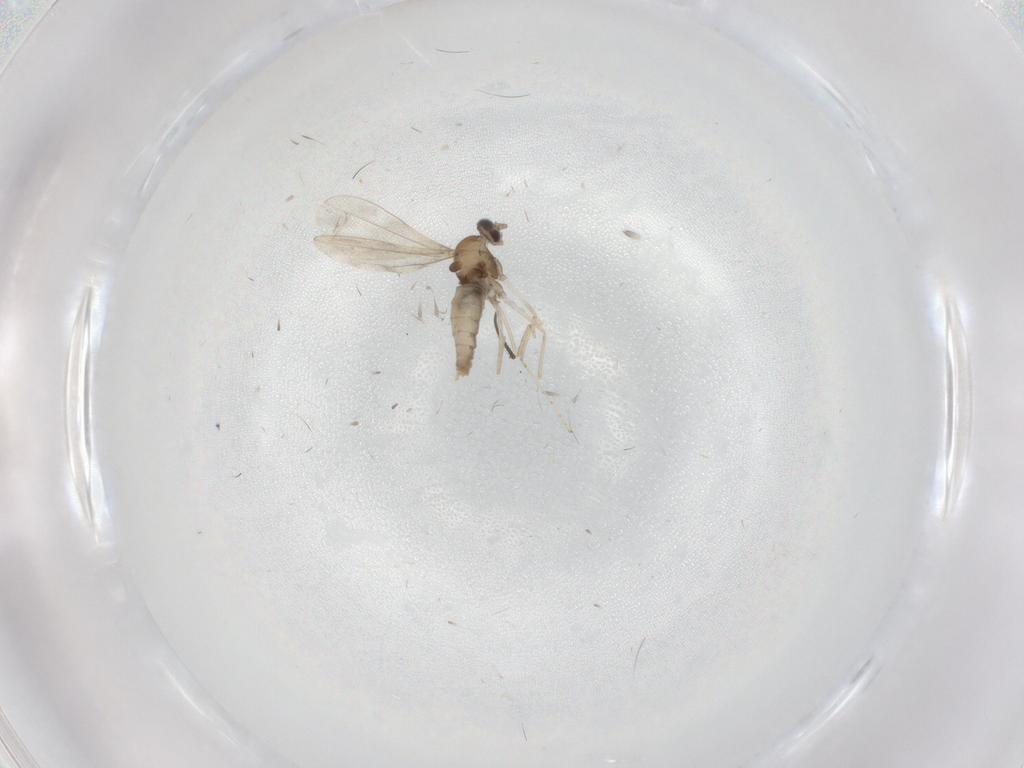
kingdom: Animalia
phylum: Arthropoda
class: Insecta
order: Diptera
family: Cecidomyiidae
